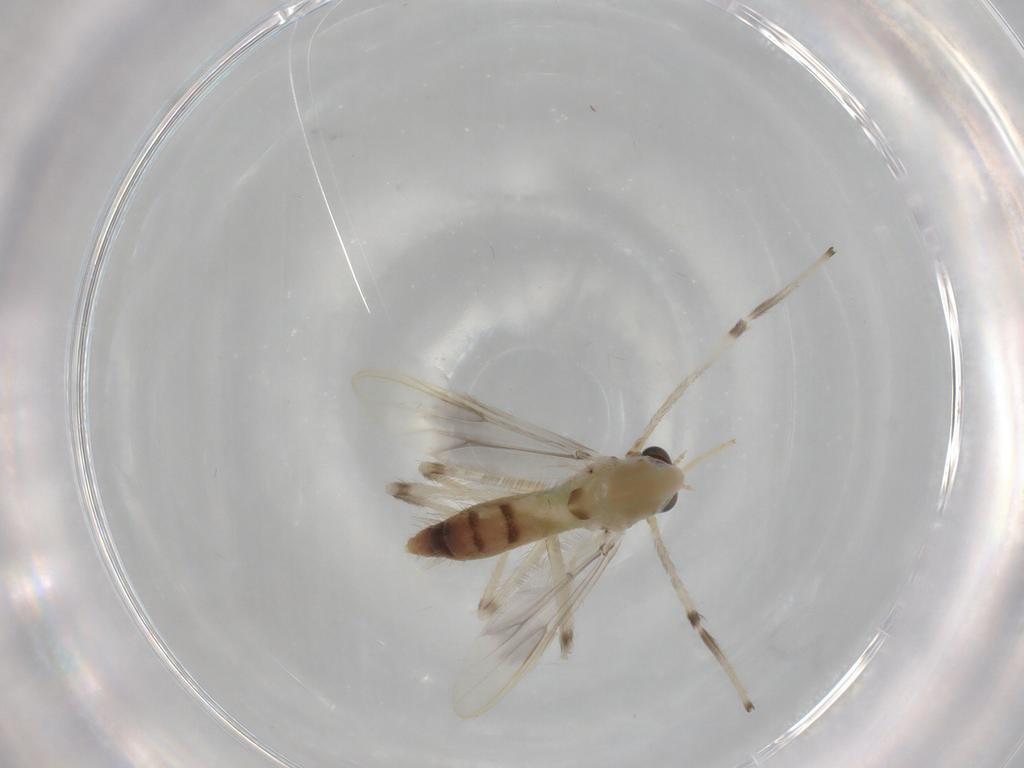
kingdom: Animalia
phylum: Arthropoda
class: Insecta
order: Diptera
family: Chironomidae
